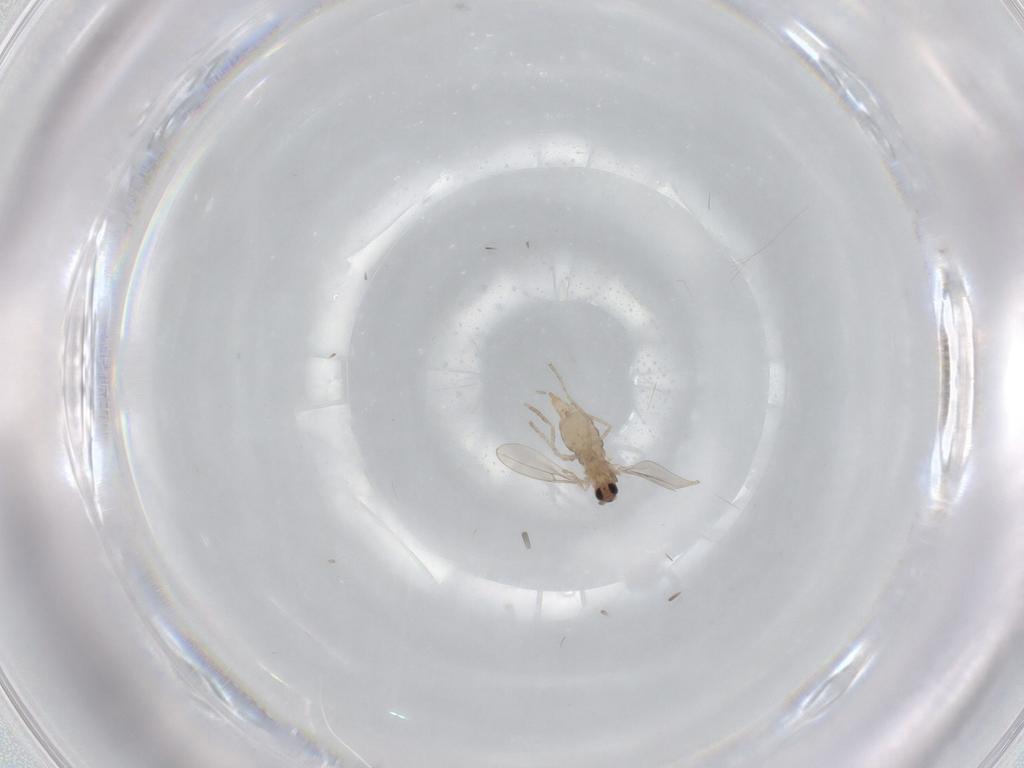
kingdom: Animalia
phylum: Arthropoda
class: Insecta
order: Diptera
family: Cecidomyiidae
